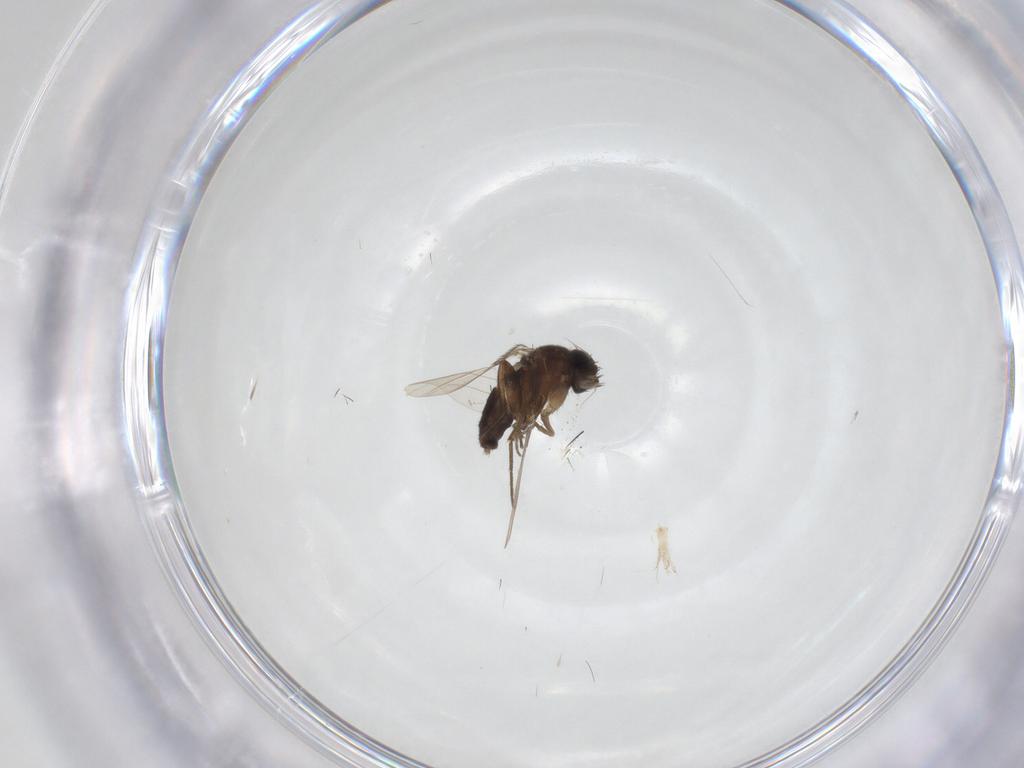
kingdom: Animalia
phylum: Arthropoda
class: Insecta
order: Diptera
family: Phoridae
